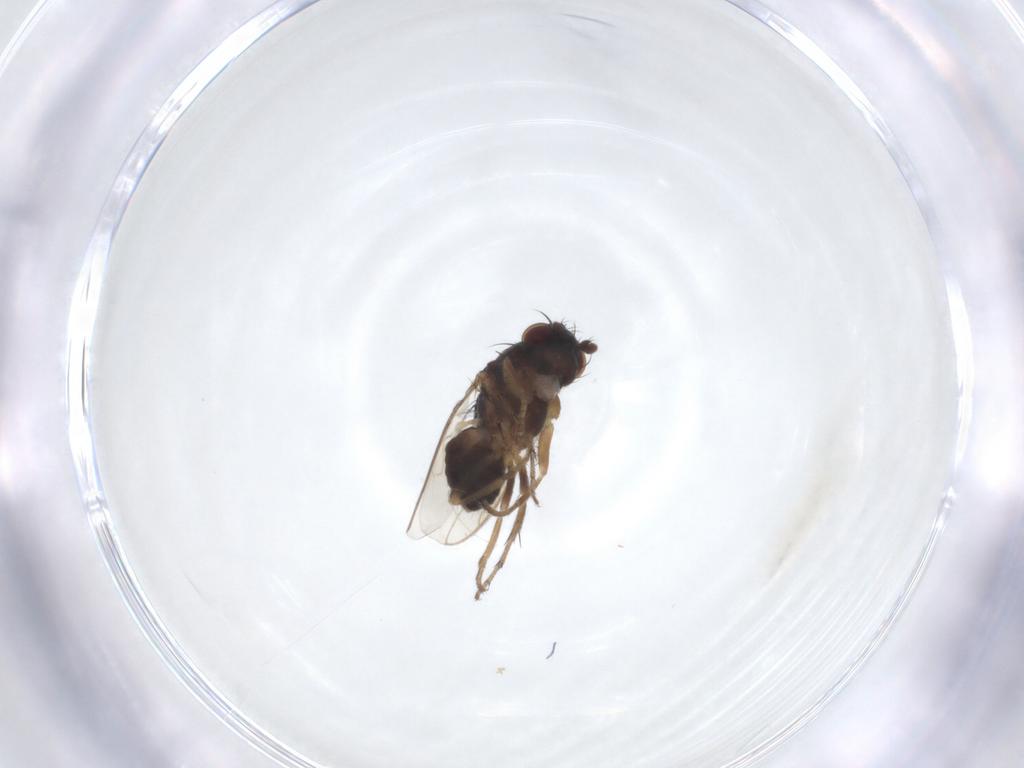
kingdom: Animalia
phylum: Arthropoda
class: Insecta
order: Diptera
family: Sphaeroceridae
